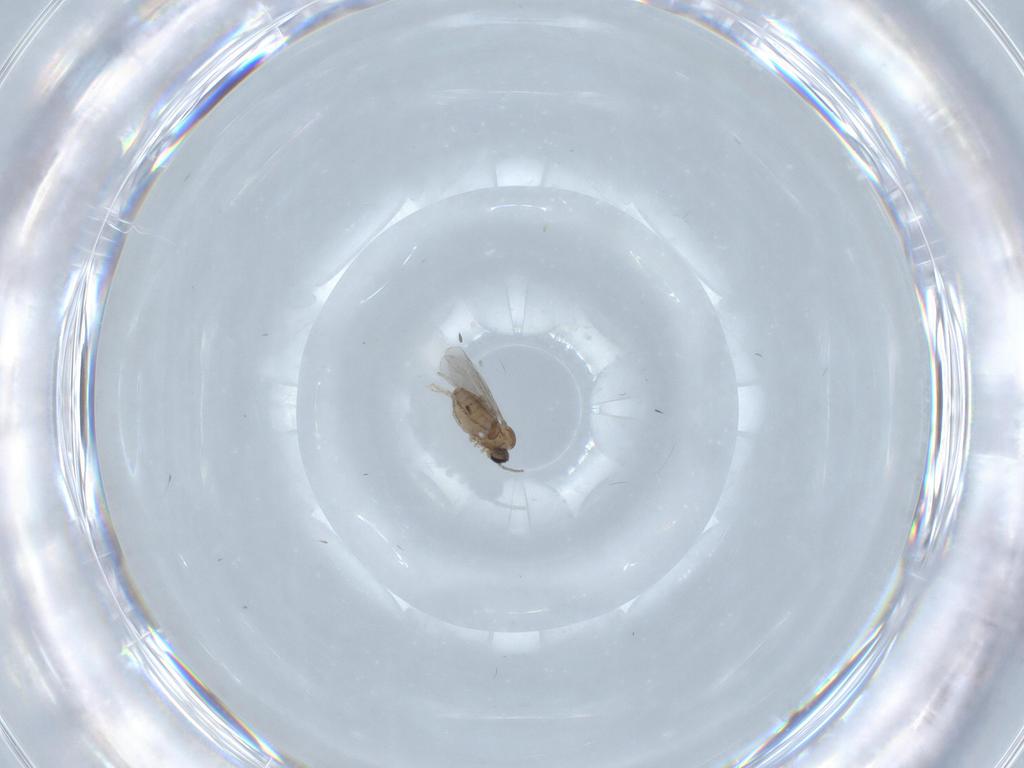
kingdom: Animalia
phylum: Arthropoda
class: Insecta
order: Diptera
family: Cecidomyiidae
